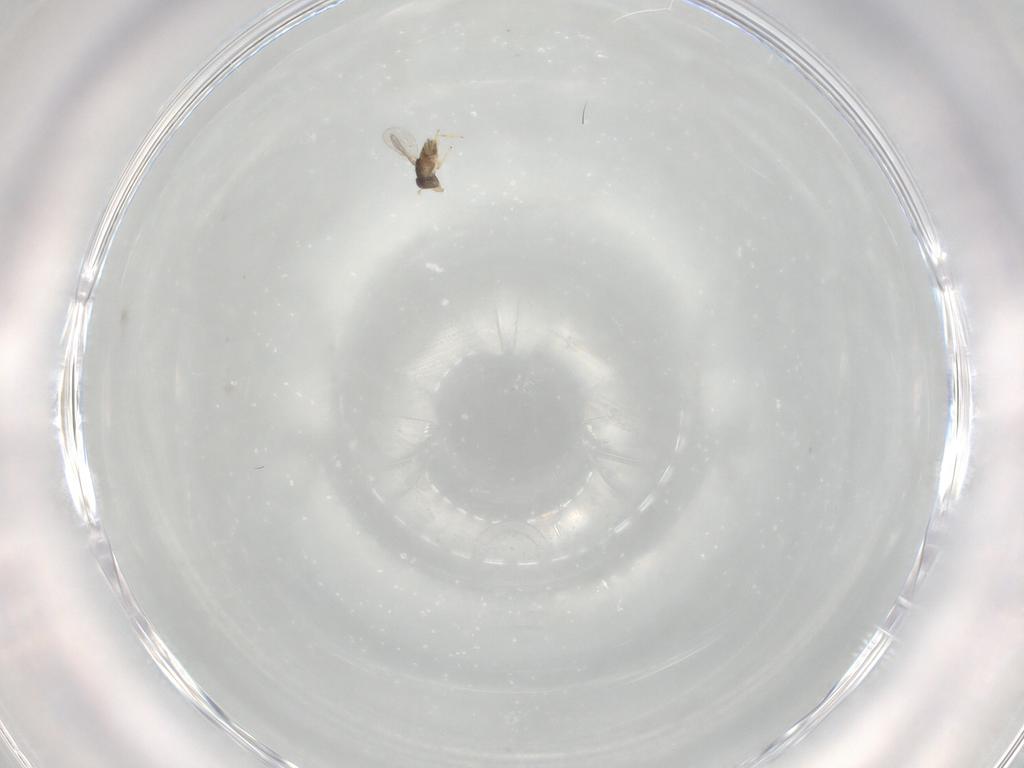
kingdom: Animalia
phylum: Arthropoda
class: Insecta
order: Hymenoptera
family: Encyrtidae
